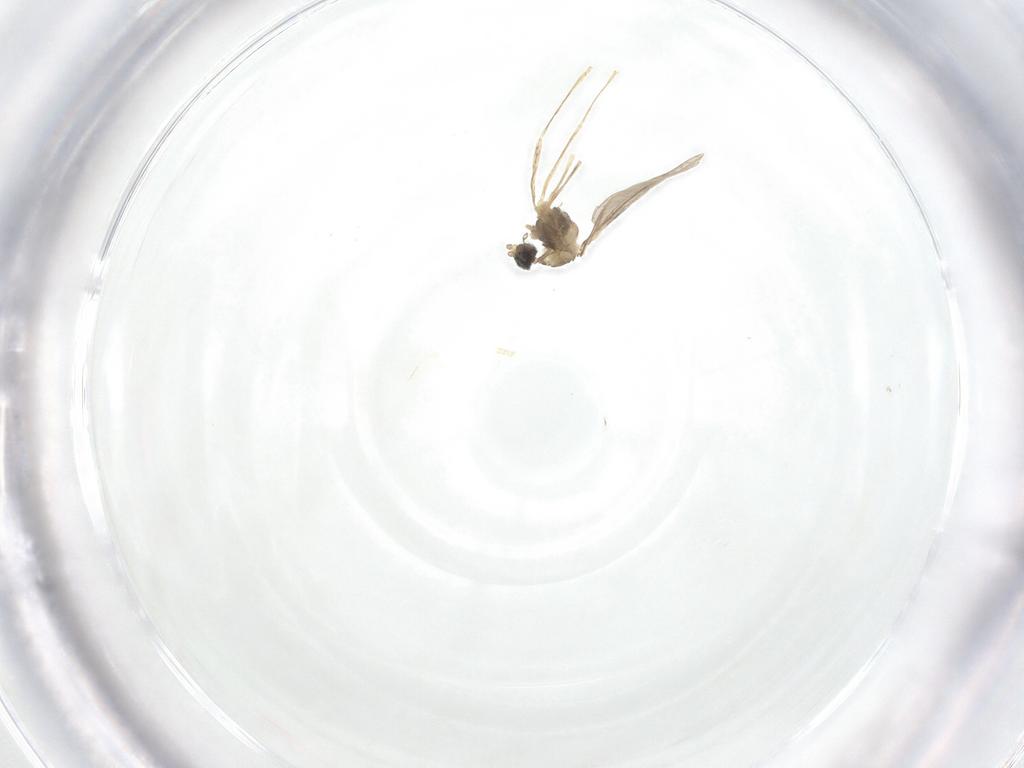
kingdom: Animalia
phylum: Arthropoda
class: Insecta
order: Diptera
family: Cecidomyiidae
